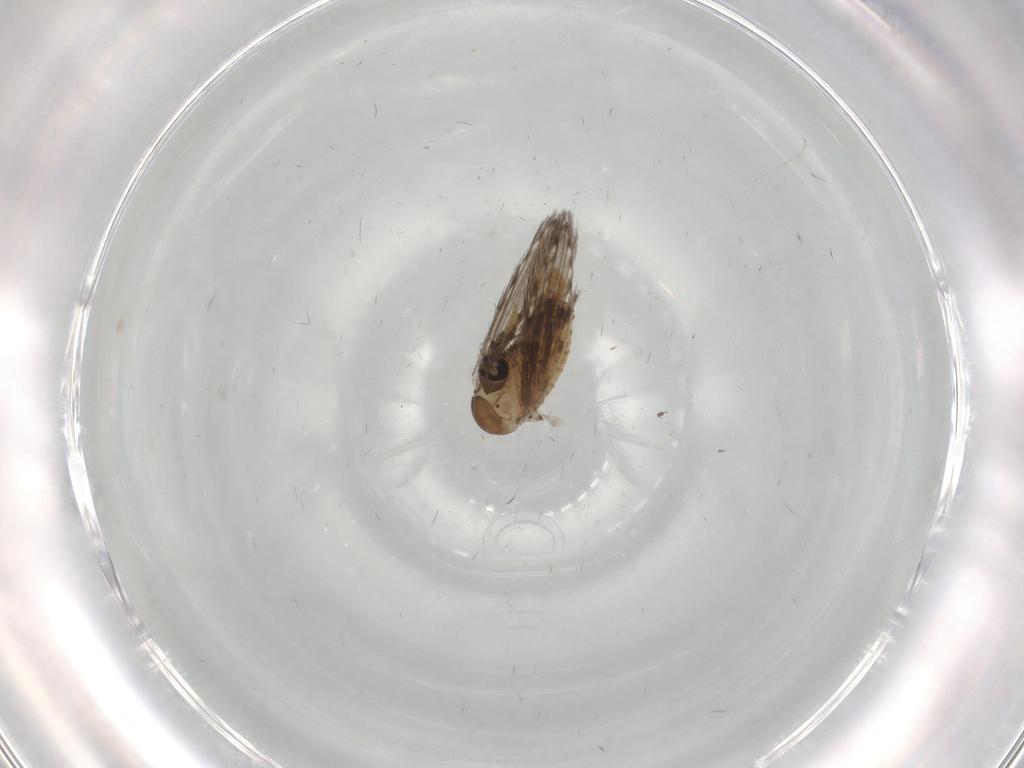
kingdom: Animalia
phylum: Arthropoda
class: Insecta
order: Diptera
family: Psychodidae
